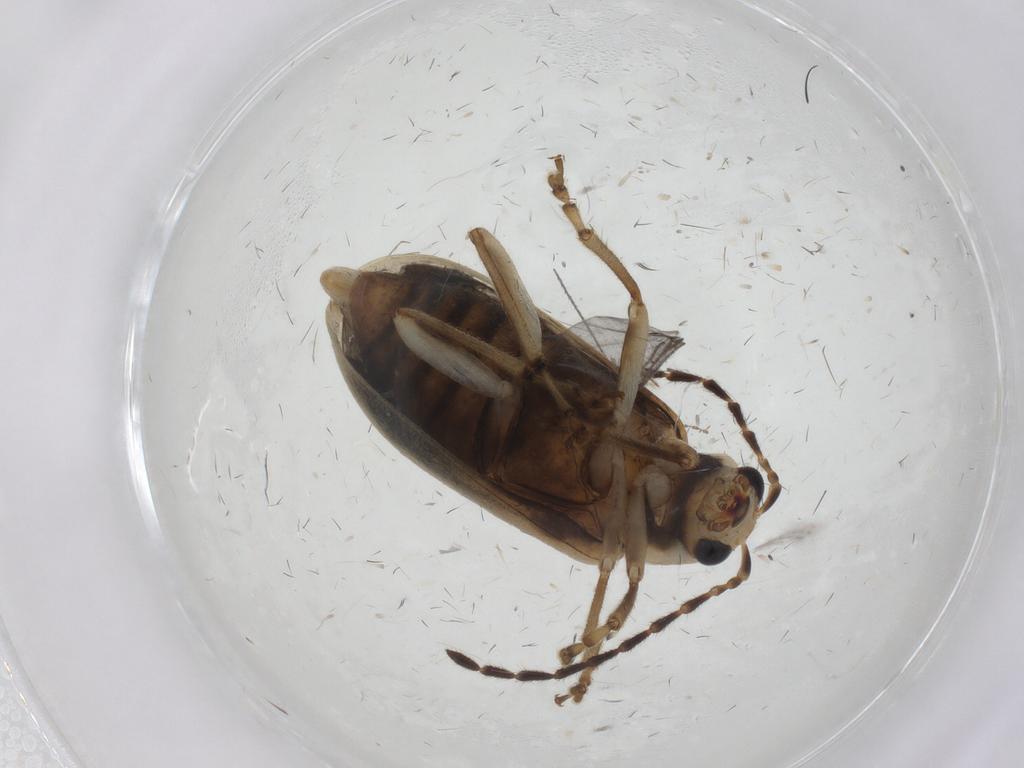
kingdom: Animalia
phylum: Arthropoda
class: Insecta
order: Coleoptera
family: Chrysomelidae
